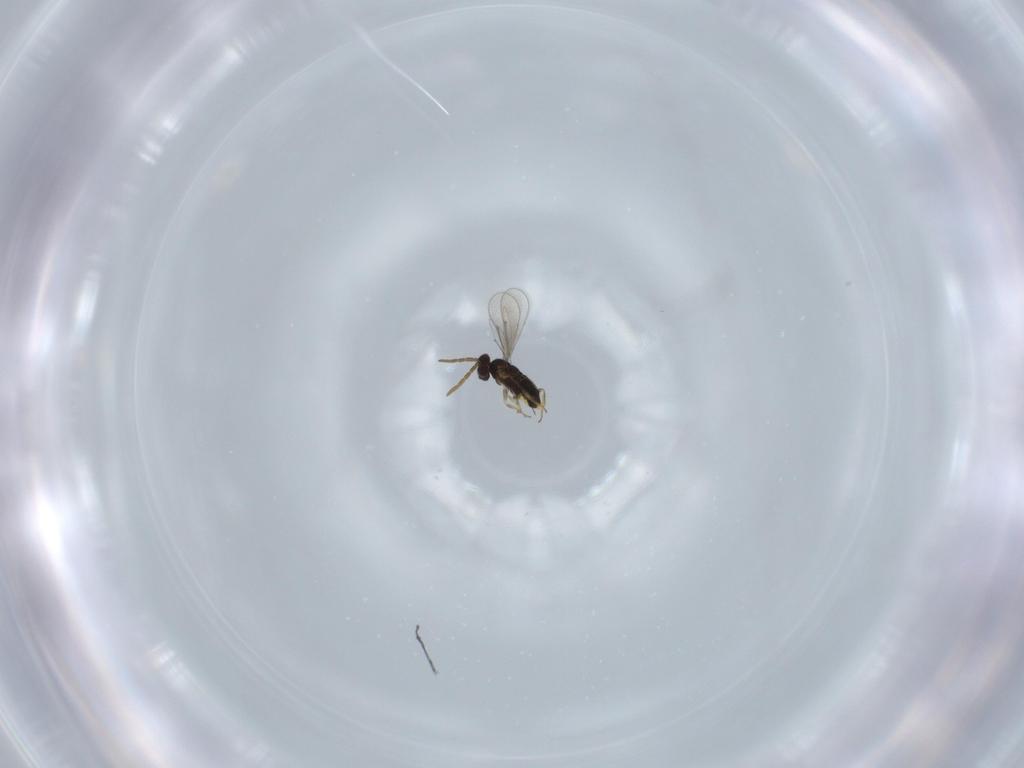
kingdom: Animalia
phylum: Arthropoda
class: Insecta
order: Hymenoptera
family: Aphelinidae
